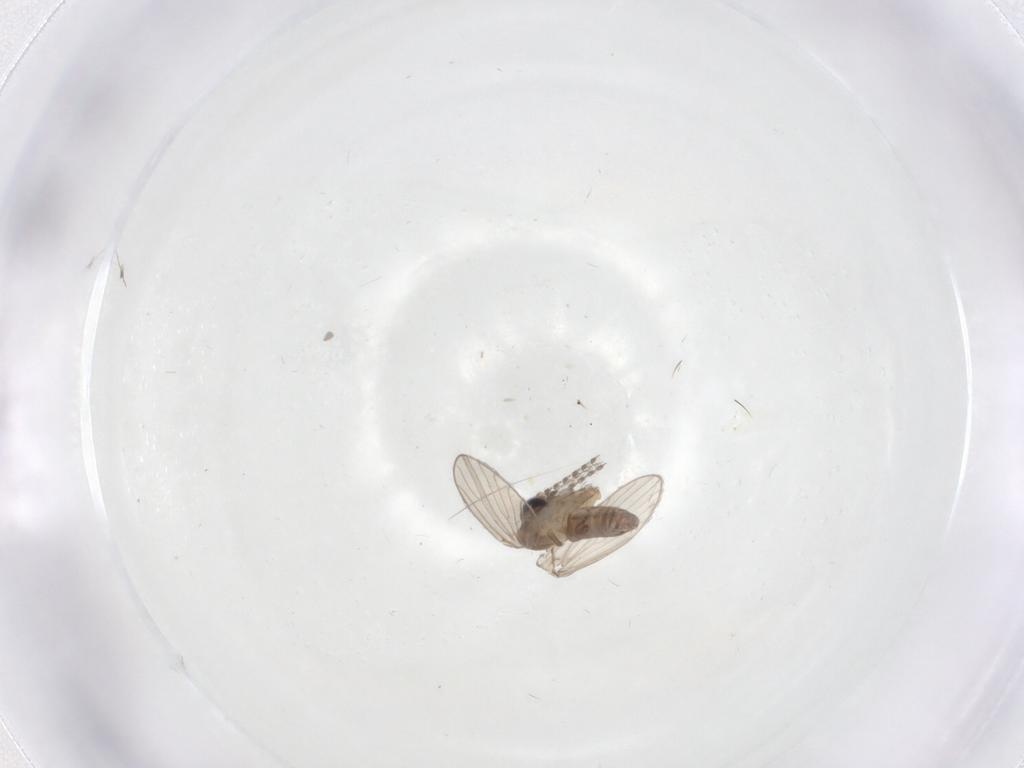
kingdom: Animalia
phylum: Arthropoda
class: Insecta
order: Diptera
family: Psychodidae
